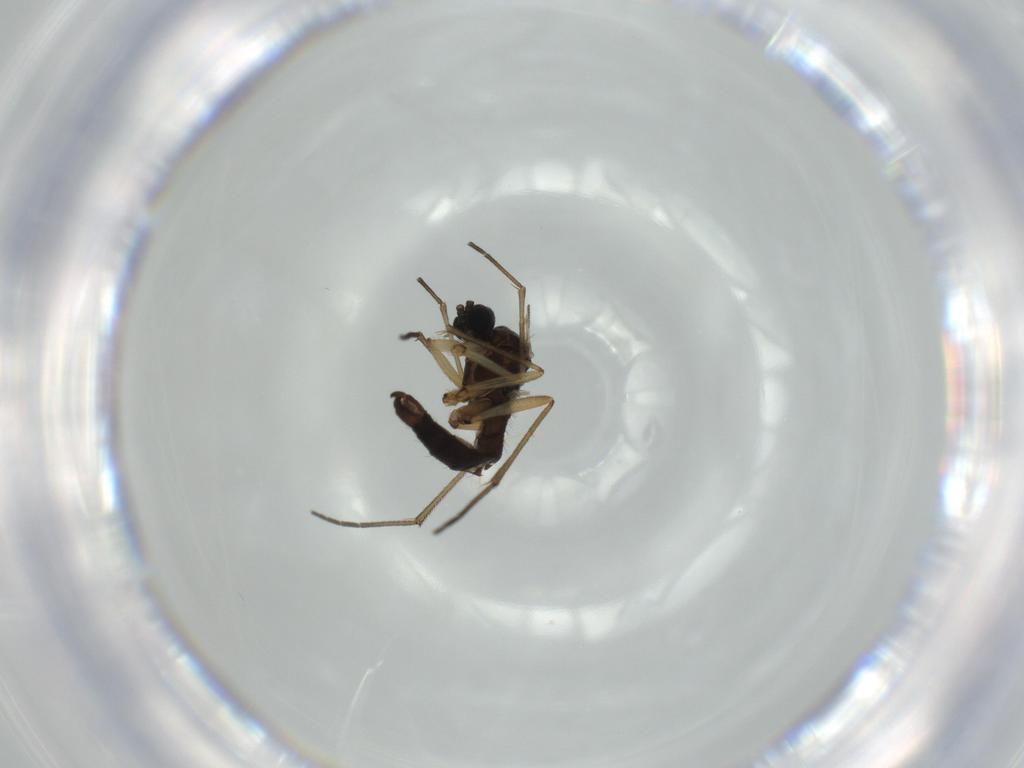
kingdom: Animalia
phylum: Arthropoda
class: Insecta
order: Diptera
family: Sciaridae
